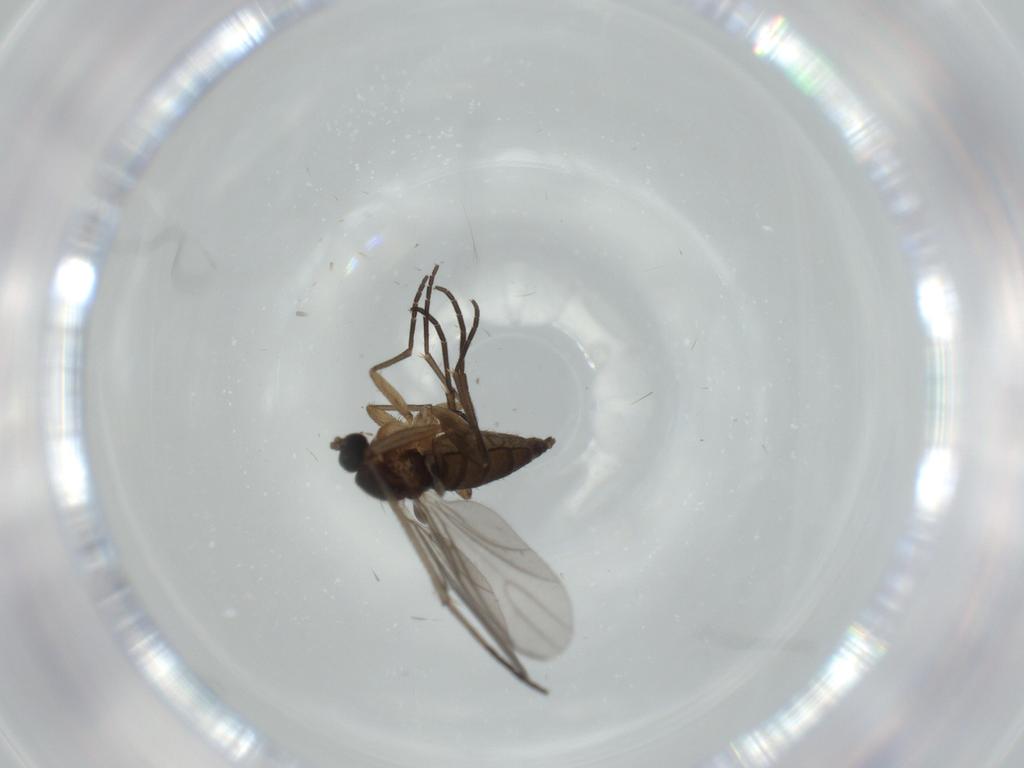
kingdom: Animalia
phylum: Arthropoda
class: Insecta
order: Diptera
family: Sciaridae
